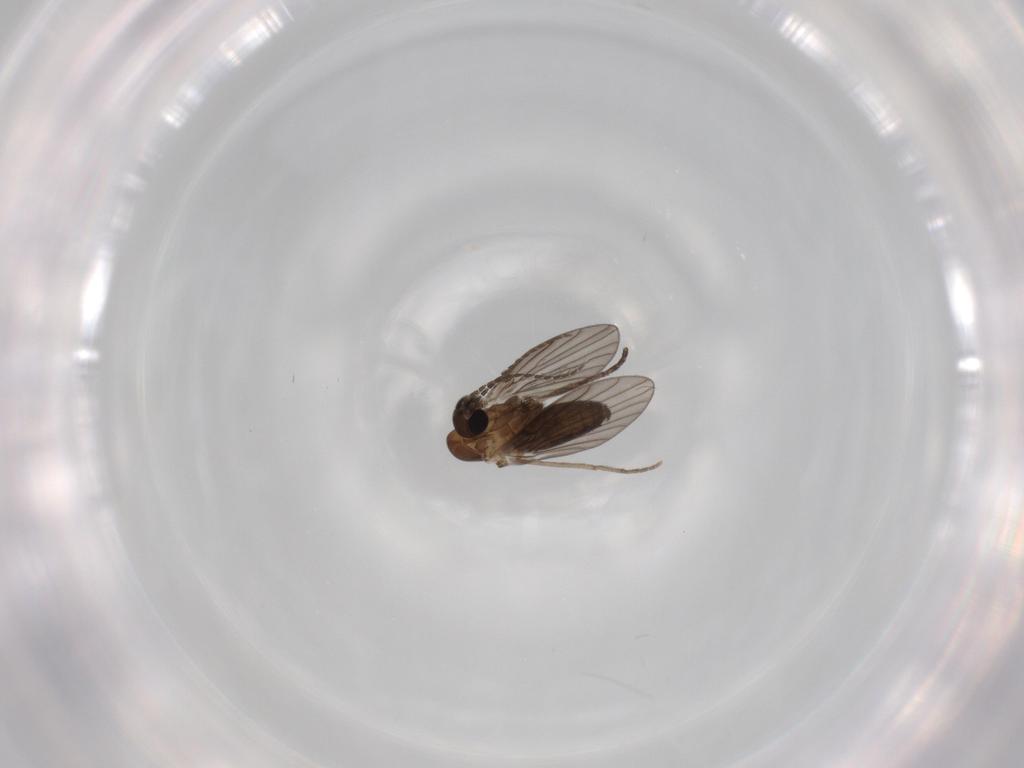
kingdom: Animalia
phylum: Arthropoda
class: Insecta
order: Diptera
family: Psychodidae
